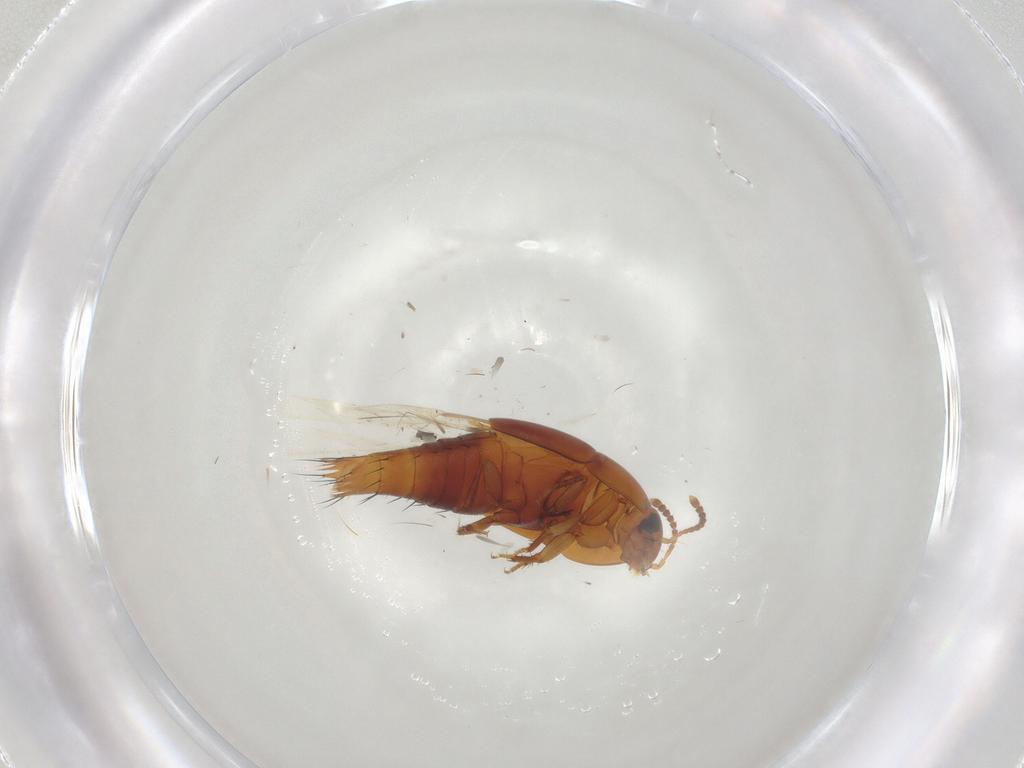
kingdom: Animalia
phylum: Arthropoda
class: Insecta
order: Coleoptera
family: Staphylinidae
